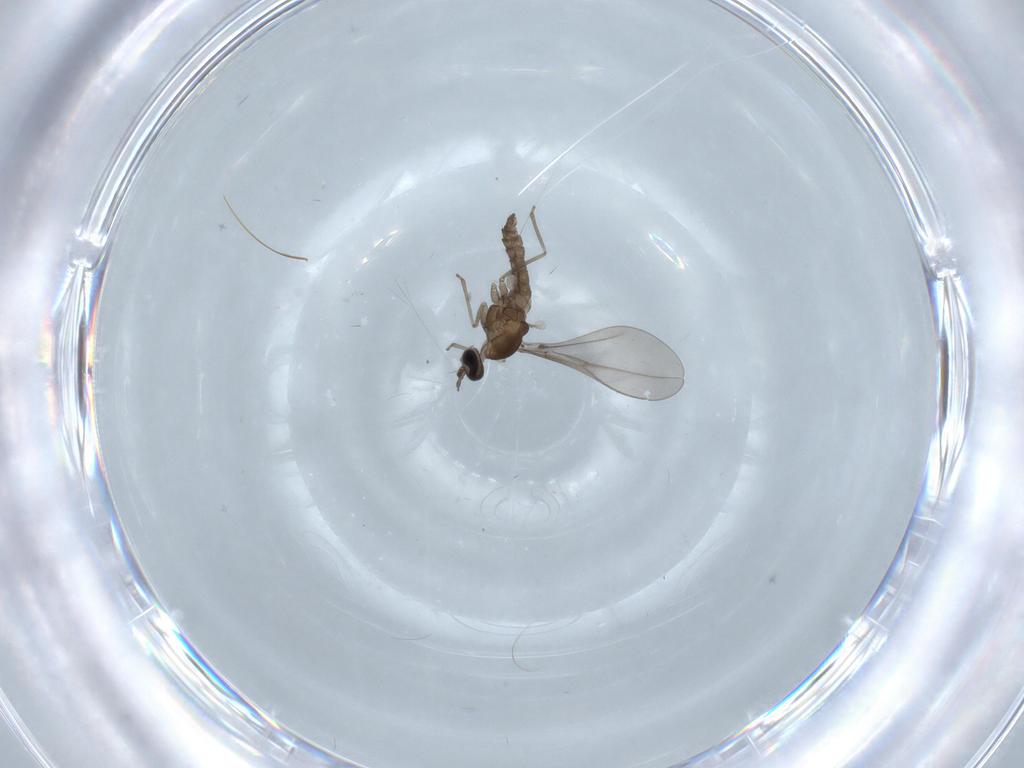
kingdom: Animalia
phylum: Arthropoda
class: Insecta
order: Diptera
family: Cecidomyiidae
